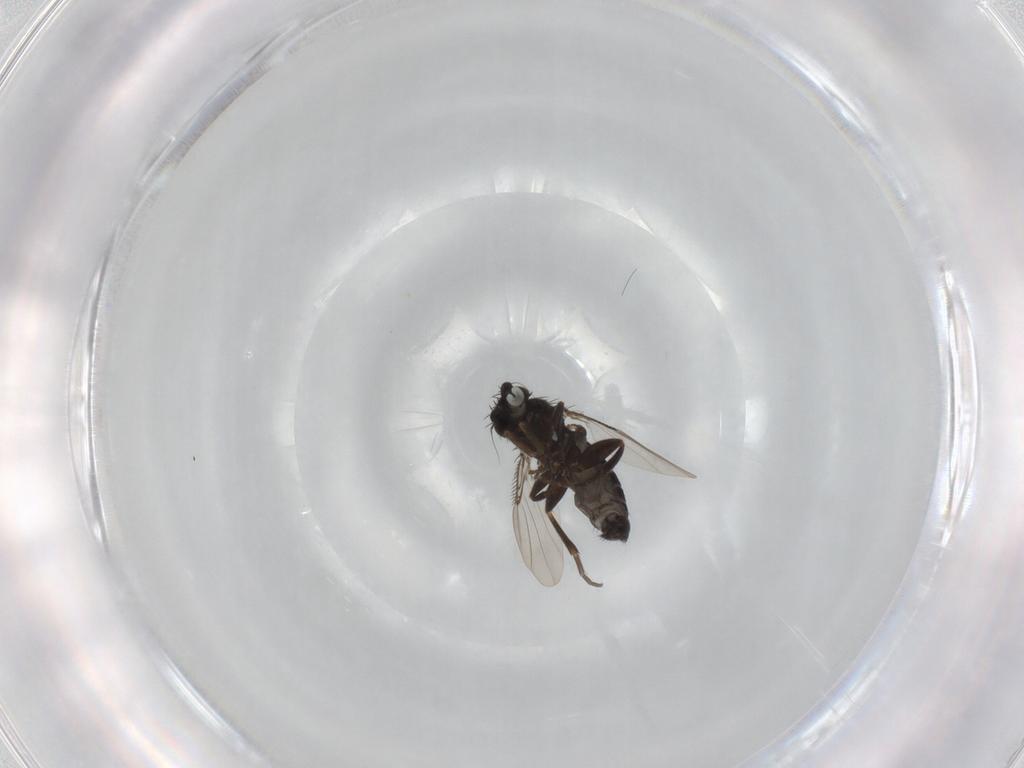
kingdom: Animalia
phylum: Arthropoda
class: Insecta
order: Diptera
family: Phoridae
